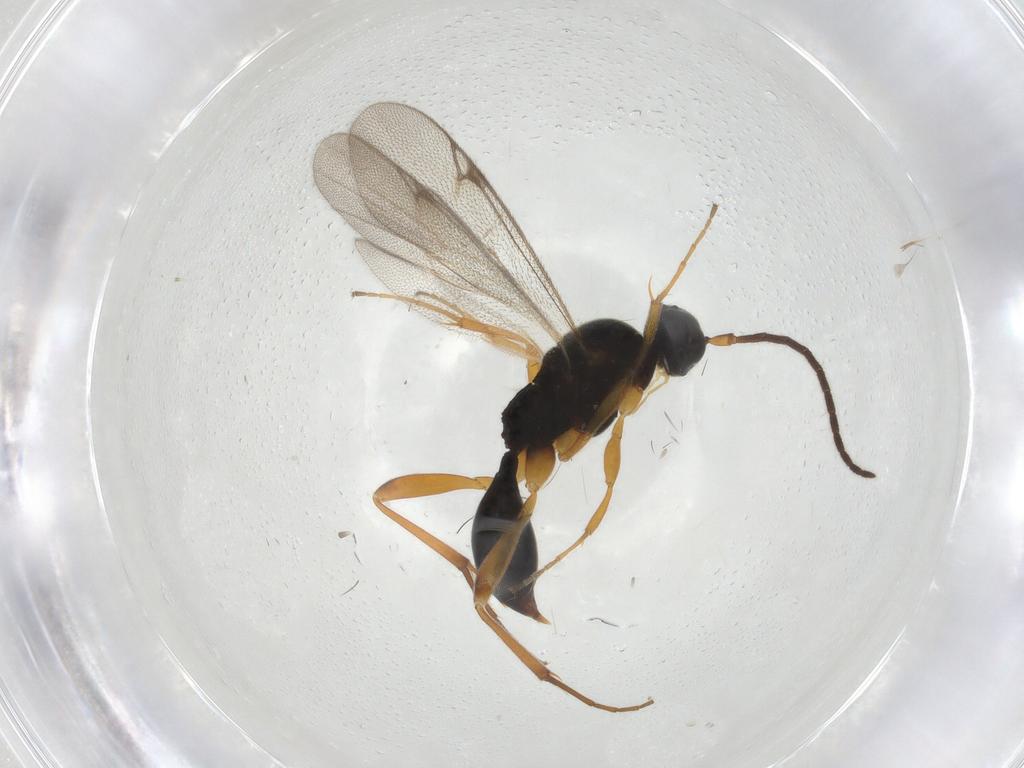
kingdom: Animalia
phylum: Arthropoda
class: Insecta
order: Hymenoptera
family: Proctotrupidae
